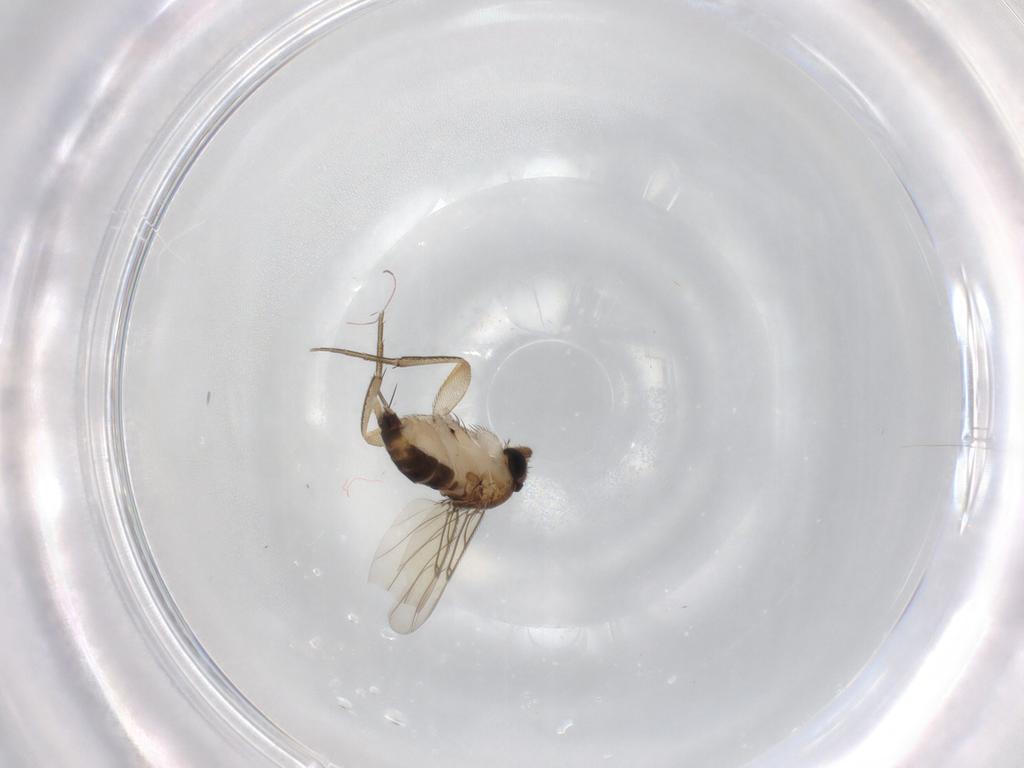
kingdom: Animalia
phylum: Arthropoda
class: Insecta
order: Diptera
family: Phoridae
